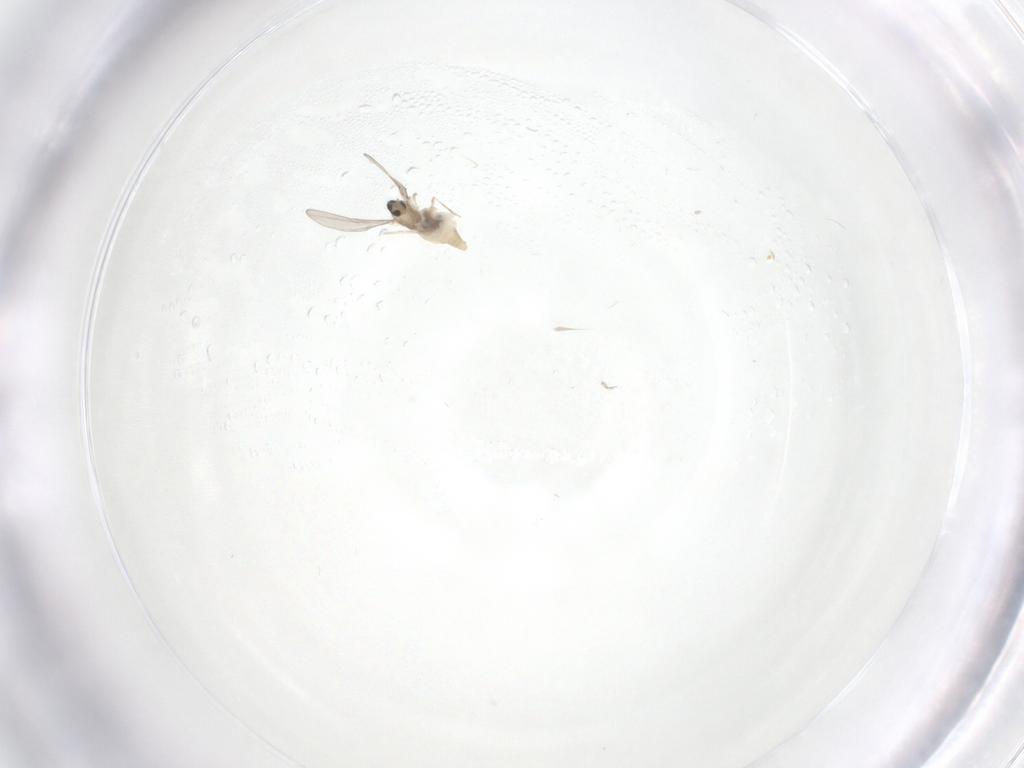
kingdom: Animalia
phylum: Arthropoda
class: Insecta
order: Diptera
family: Cecidomyiidae
